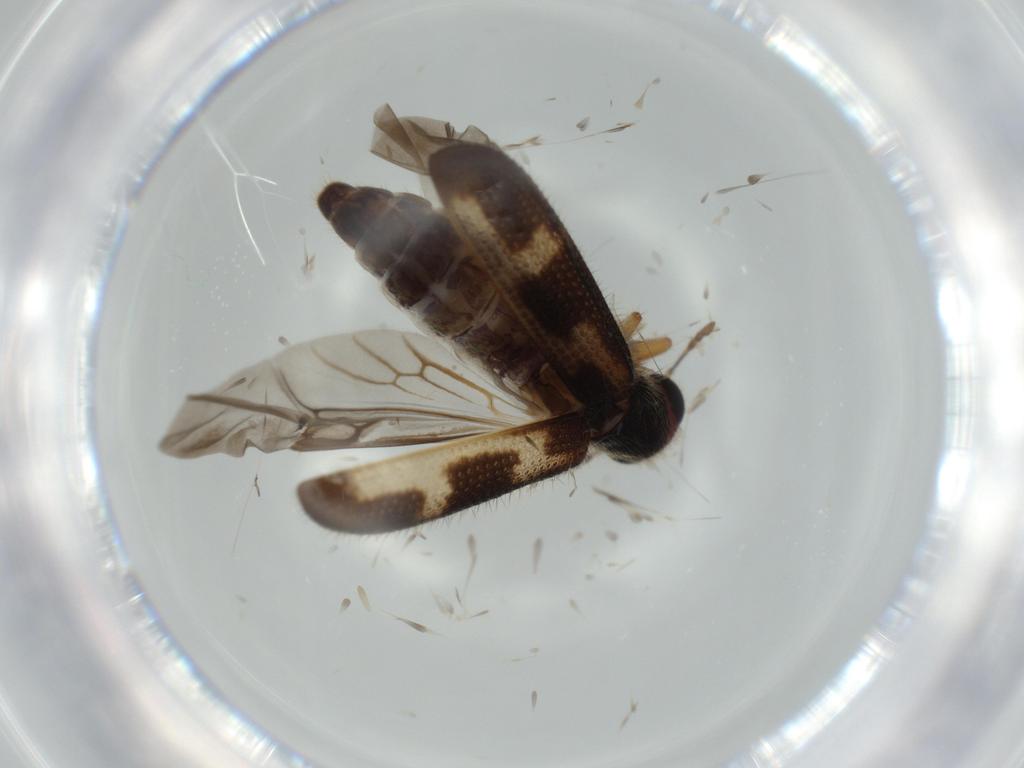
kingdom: Animalia
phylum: Arthropoda
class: Insecta
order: Coleoptera
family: Cleridae
